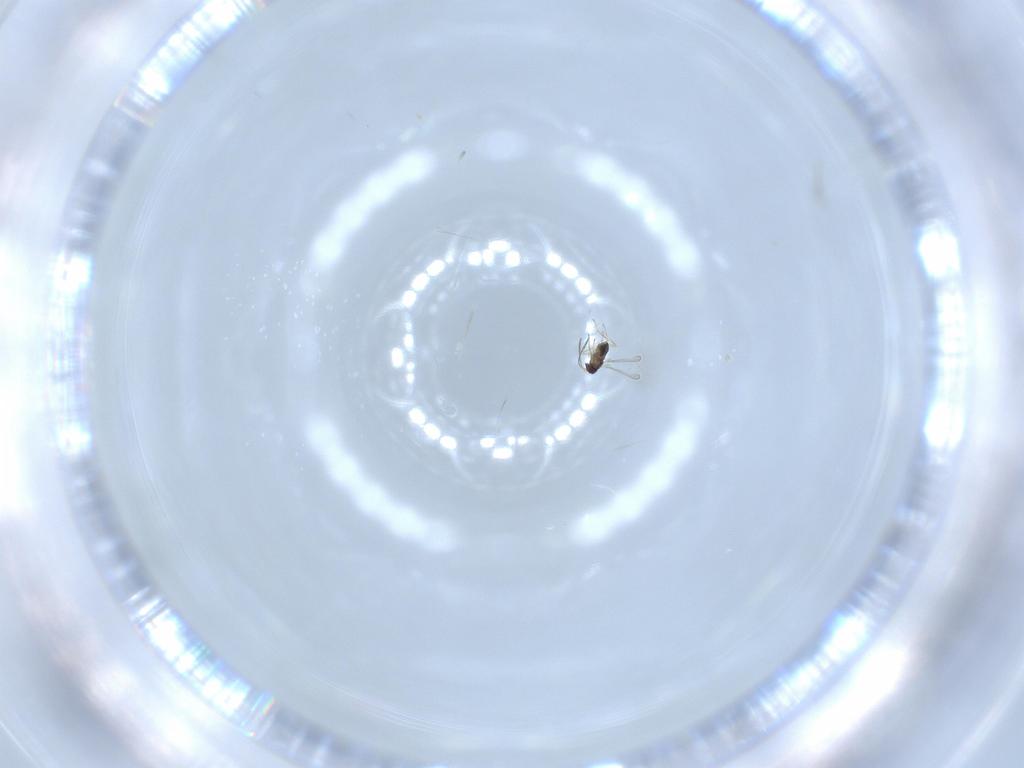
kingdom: Animalia
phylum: Arthropoda
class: Insecta
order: Hymenoptera
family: Mymaridae
